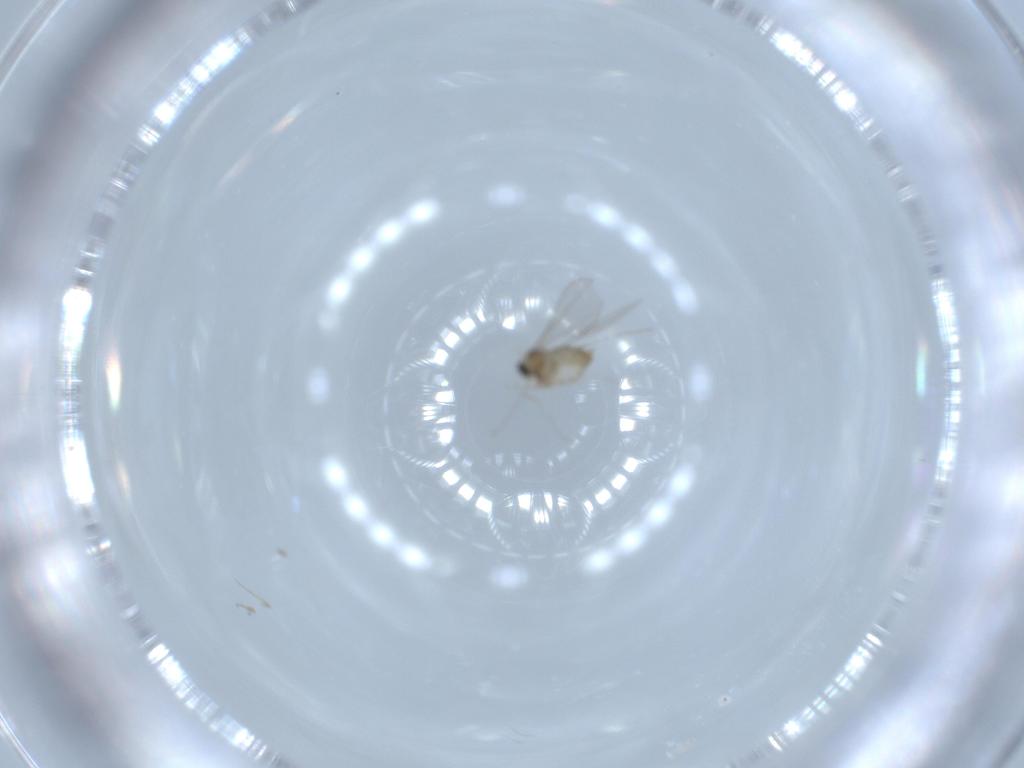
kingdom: Animalia
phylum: Arthropoda
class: Insecta
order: Diptera
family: Cecidomyiidae
